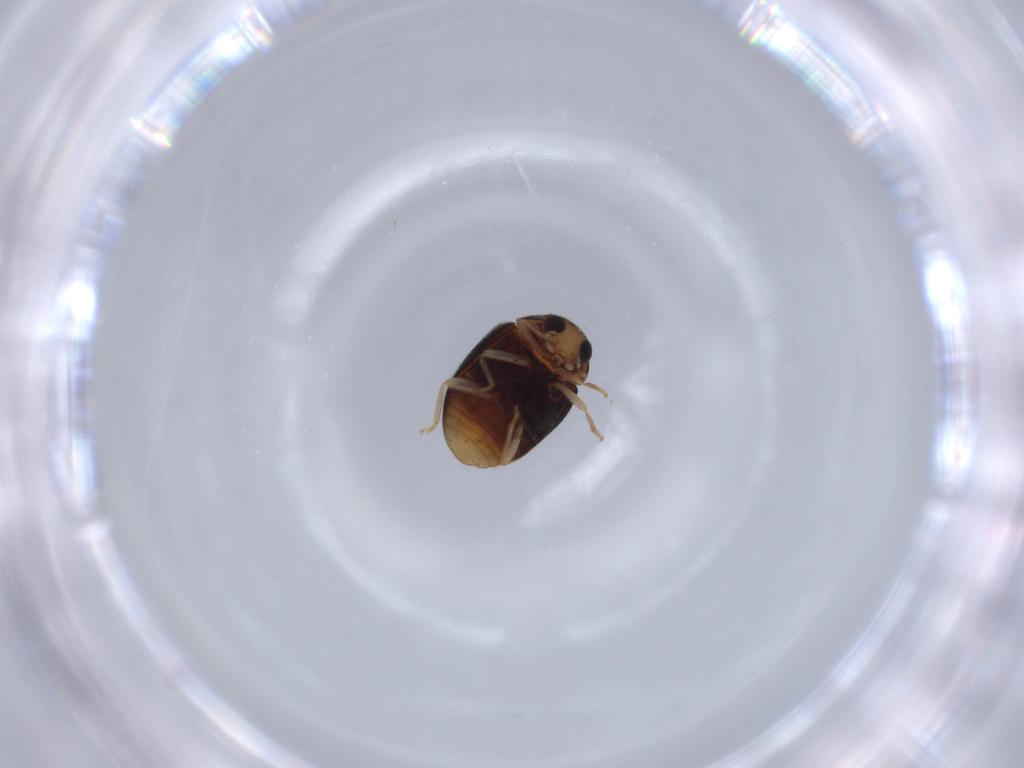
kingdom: Animalia
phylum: Arthropoda
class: Insecta
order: Coleoptera
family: Coccinellidae
